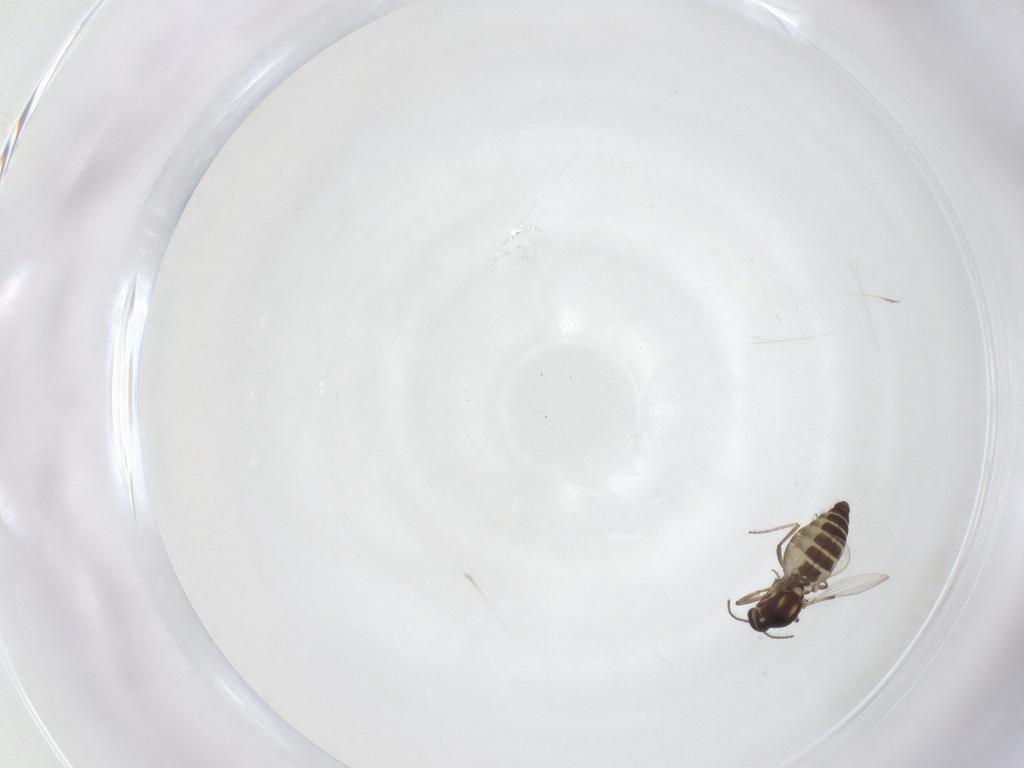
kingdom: Animalia
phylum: Arthropoda
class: Insecta
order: Diptera
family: Ceratopogonidae
